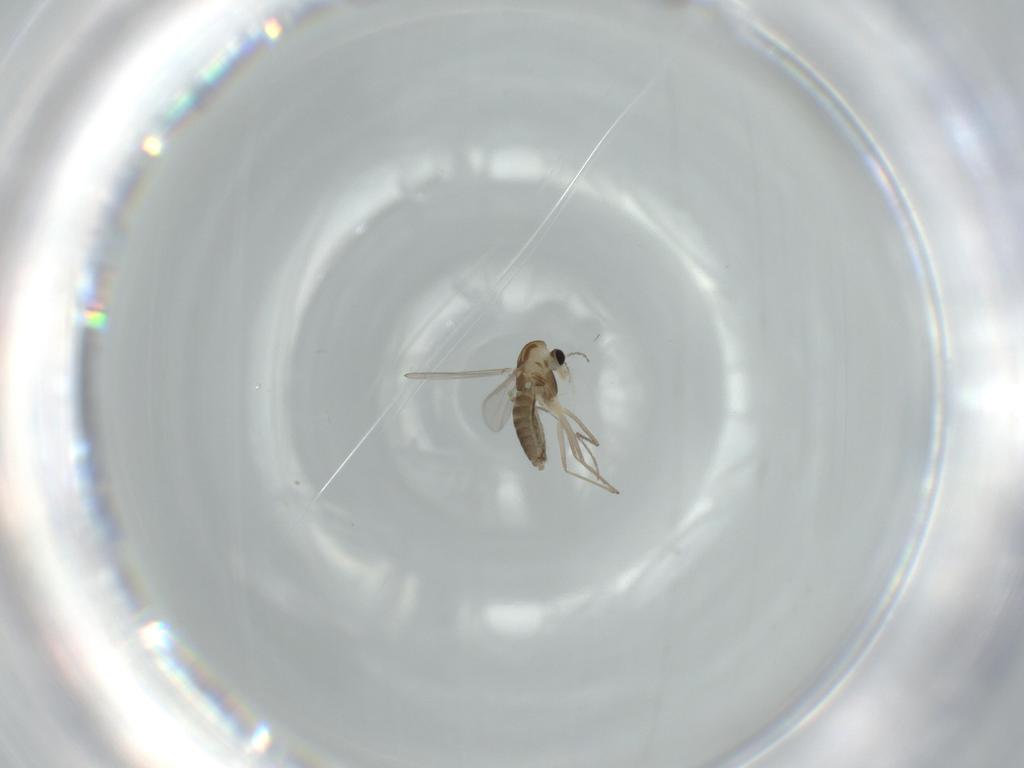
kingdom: Animalia
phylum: Arthropoda
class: Insecta
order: Diptera
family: Chironomidae
